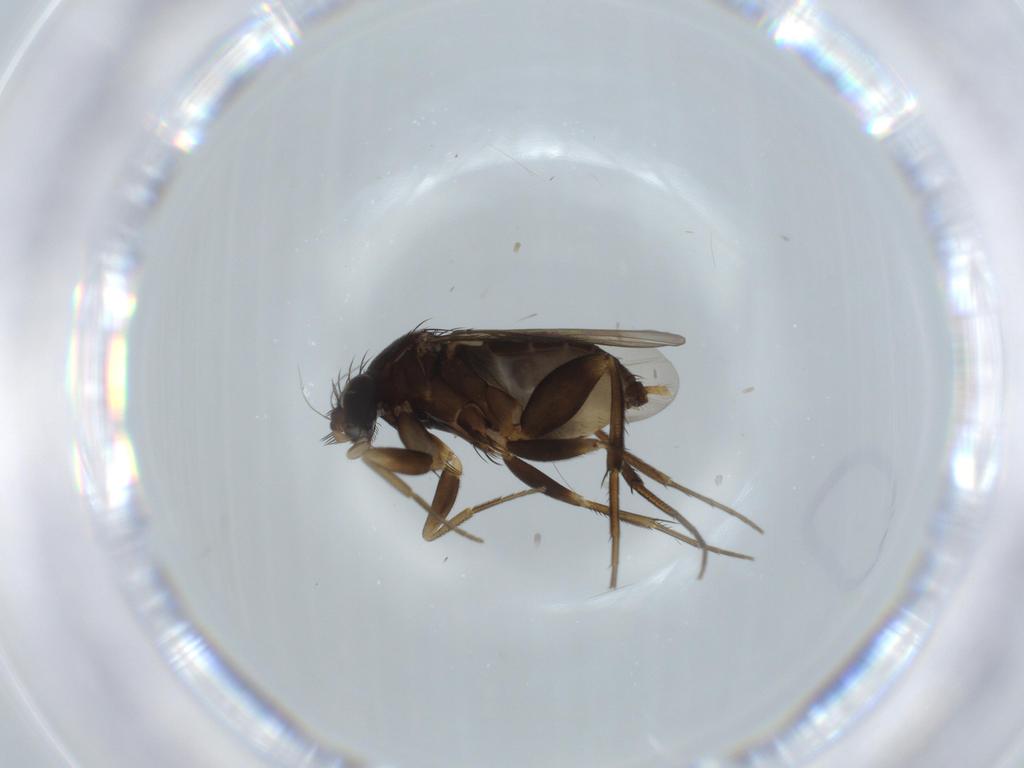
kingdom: Animalia
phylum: Arthropoda
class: Insecta
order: Diptera
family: Phoridae
